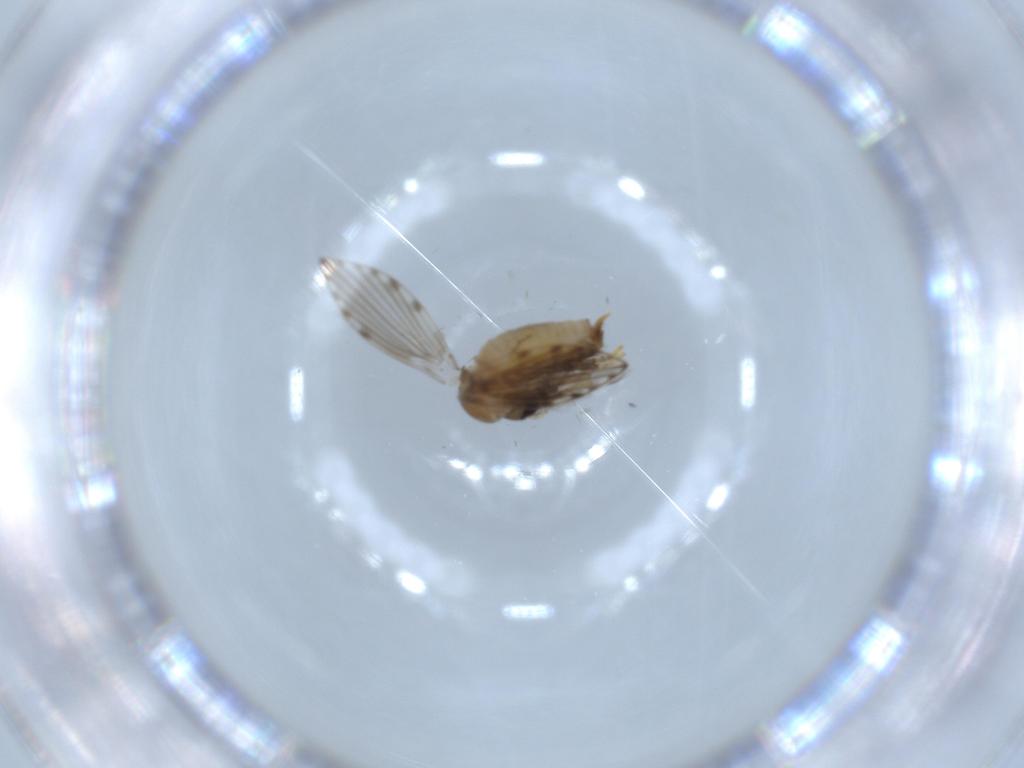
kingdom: Animalia
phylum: Arthropoda
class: Insecta
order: Diptera
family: Psychodidae
